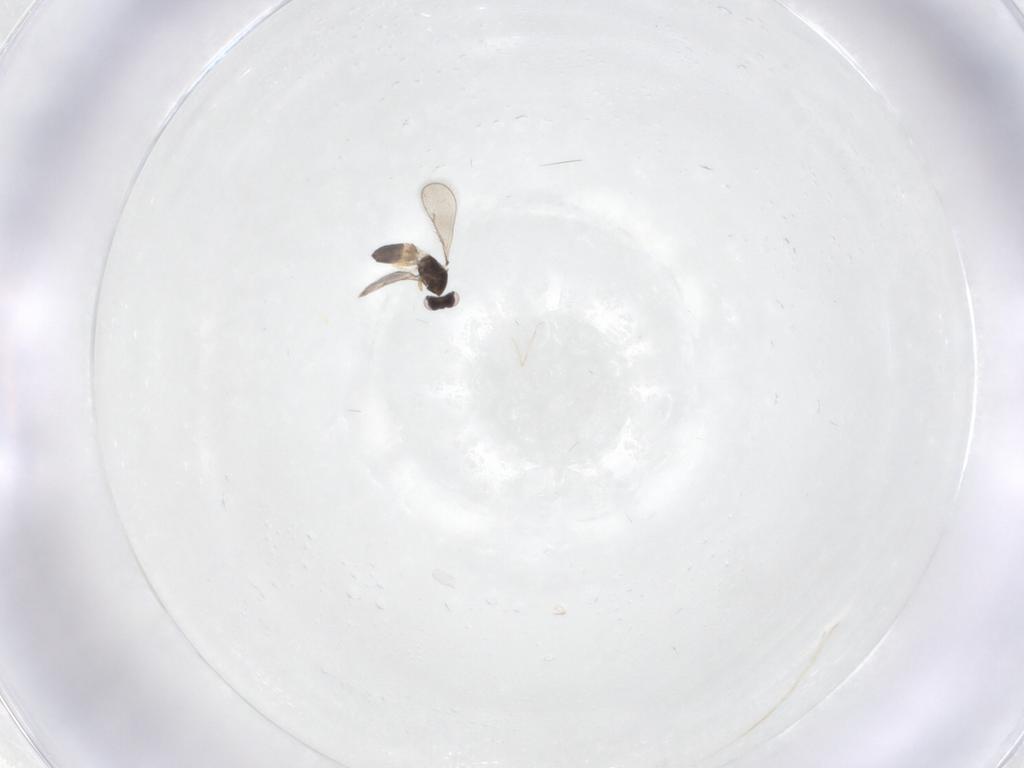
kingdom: Animalia
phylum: Arthropoda
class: Insecta
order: Hymenoptera
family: Eulophidae
